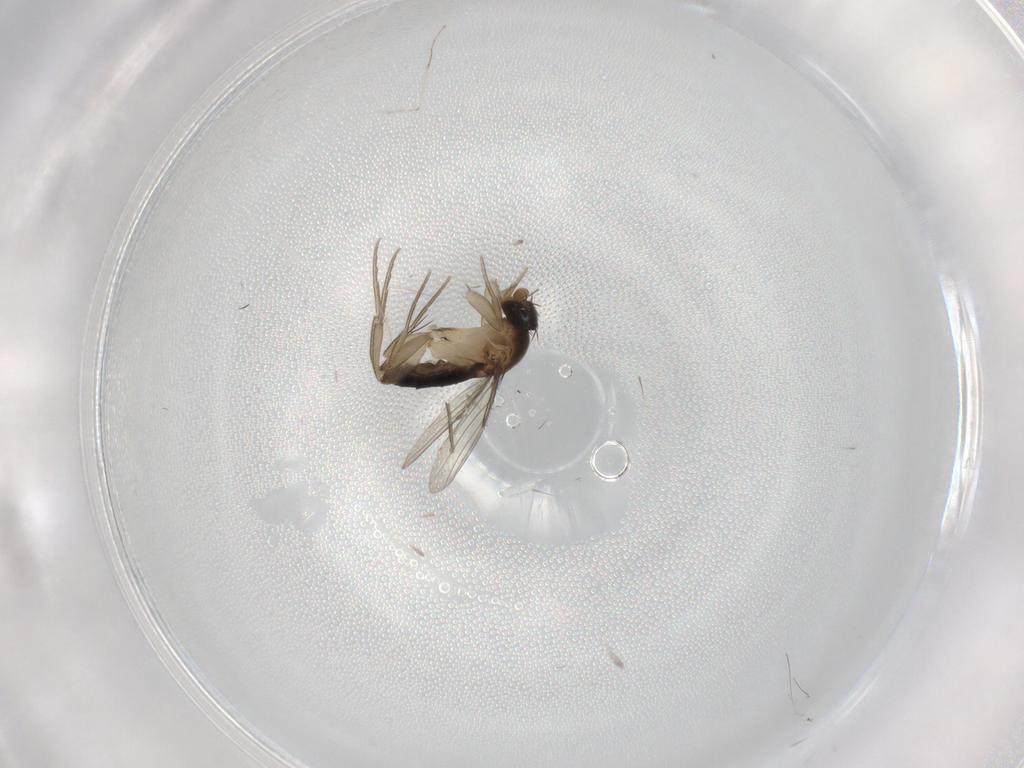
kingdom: Animalia
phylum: Arthropoda
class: Insecta
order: Diptera
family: Phoridae
